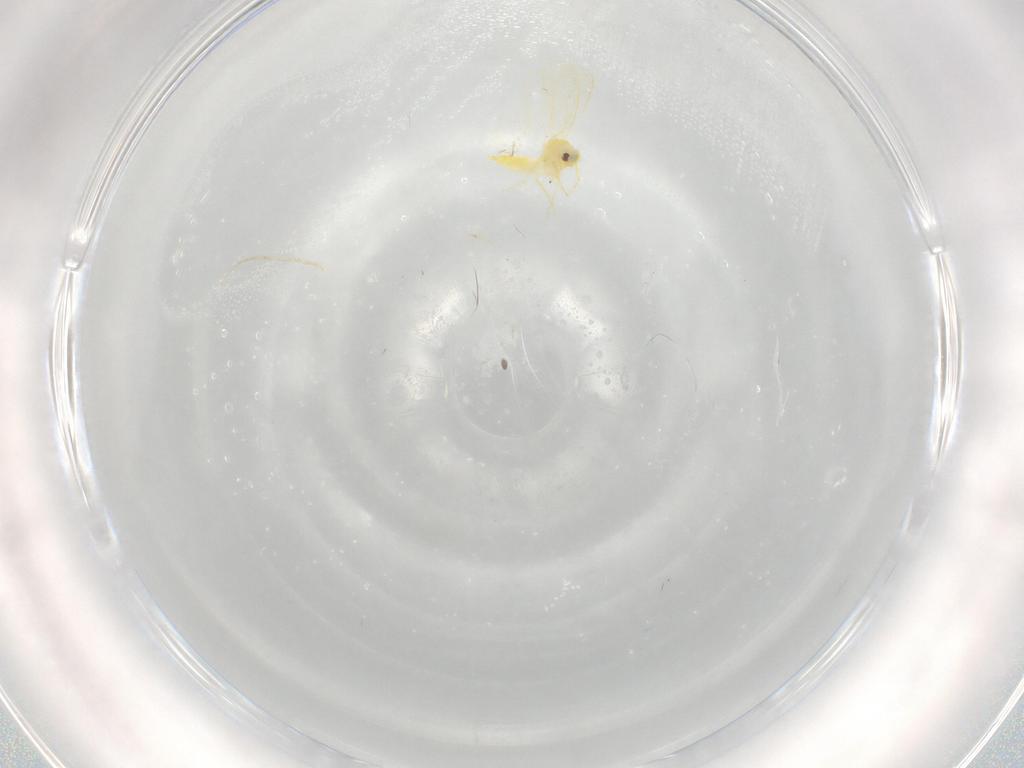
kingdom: Animalia
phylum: Arthropoda
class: Insecta
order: Hemiptera
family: Aleyrodidae
